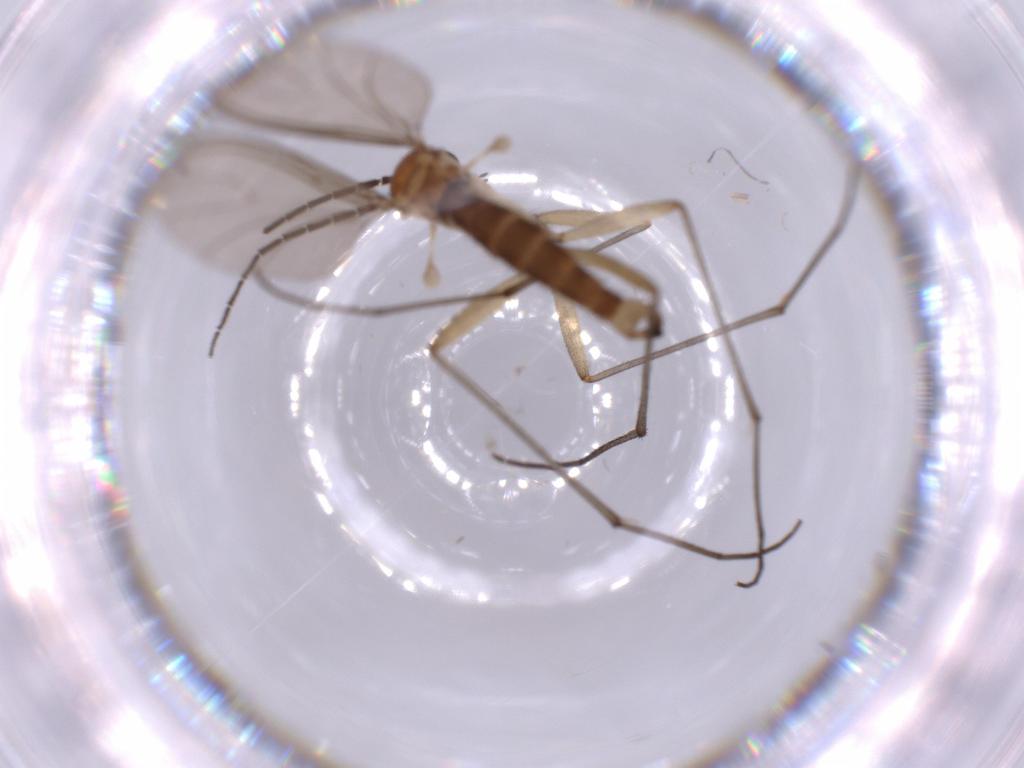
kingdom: Animalia
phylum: Arthropoda
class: Insecta
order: Diptera
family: Sciaridae
